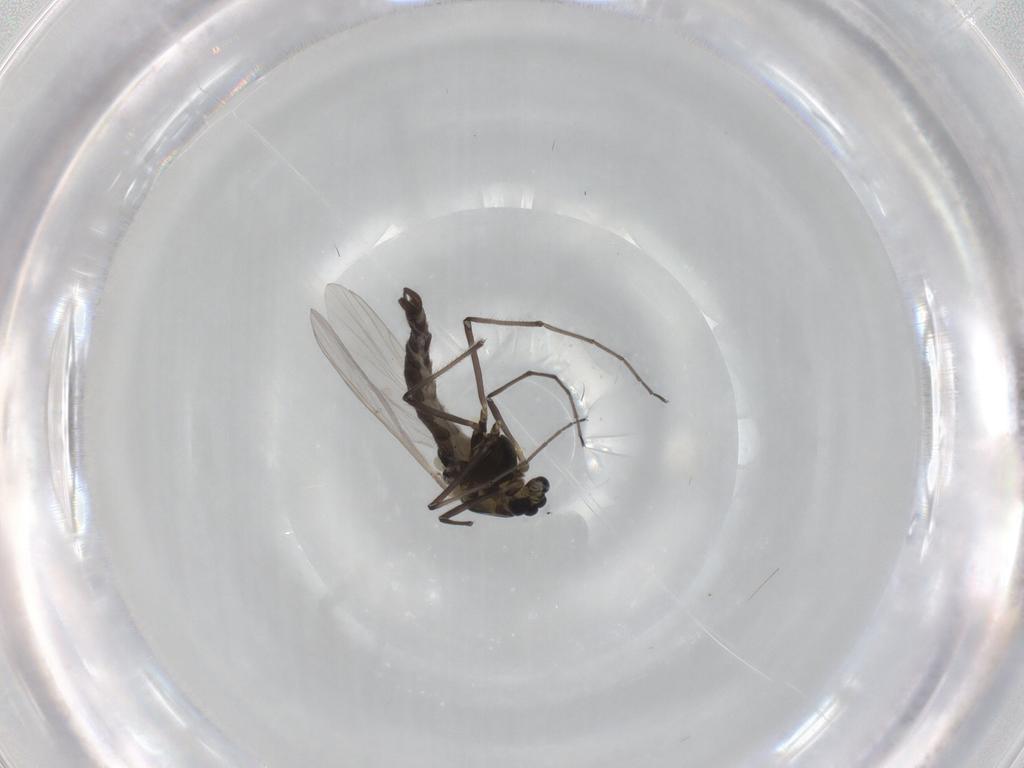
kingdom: Animalia
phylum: Arthropoda
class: Insecta
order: Diptera
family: Chironomidae
